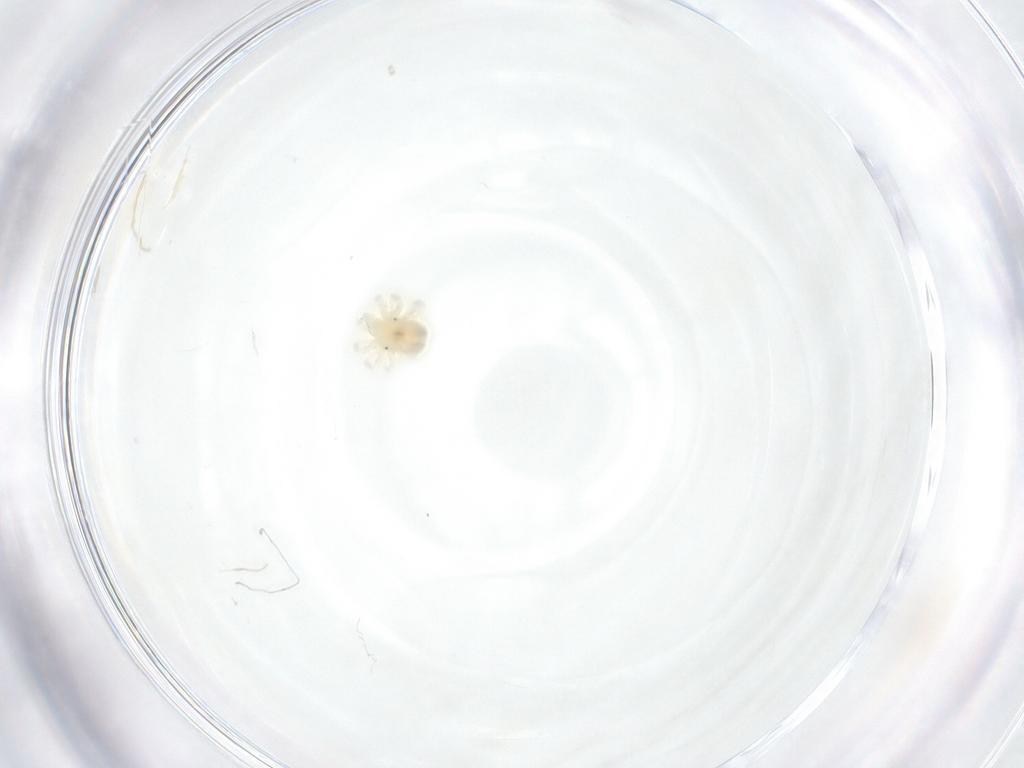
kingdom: Animalia
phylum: Arthropoda
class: Arachnida
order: Trombidiformes
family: Anystidae
